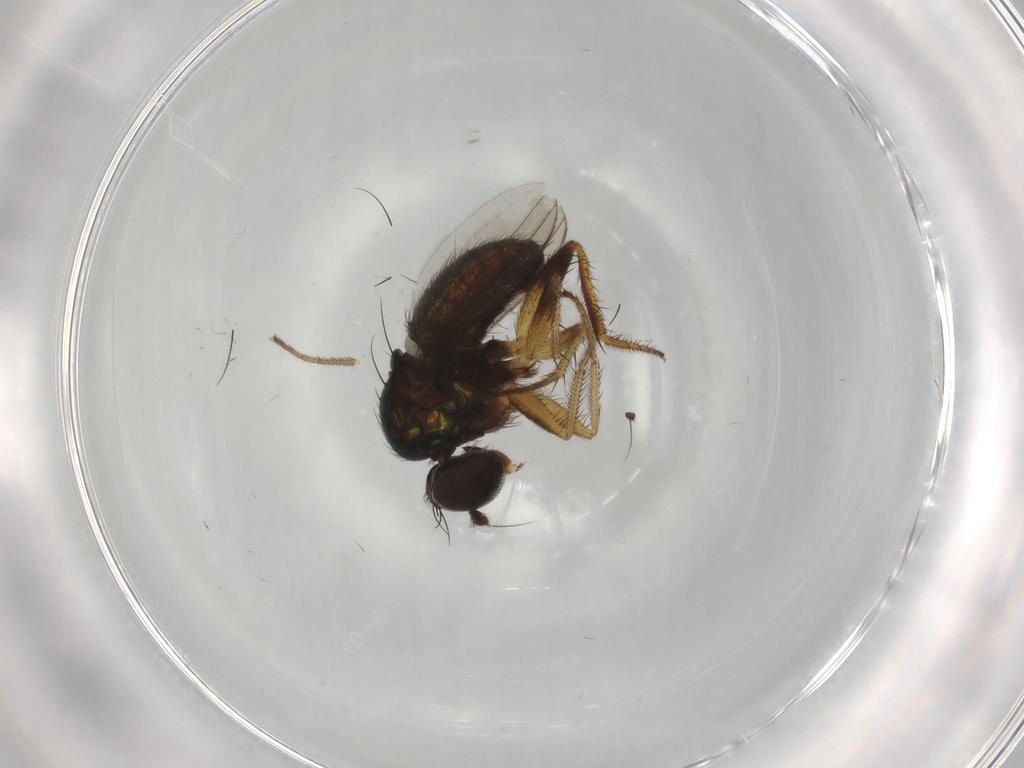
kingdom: Animalia
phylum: Arthropoda
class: Insecta
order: Diptera
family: Dolichopodidae
